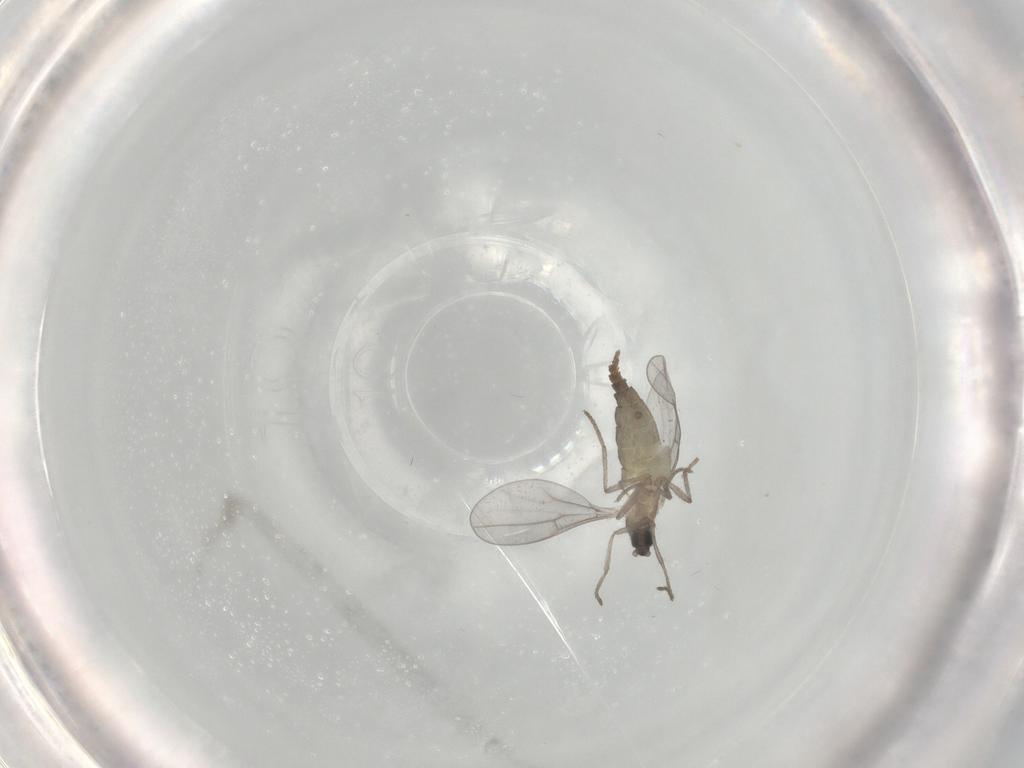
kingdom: Animalia
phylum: Arthropoda
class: Insecta
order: Diptera
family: Cecidomyiidae
